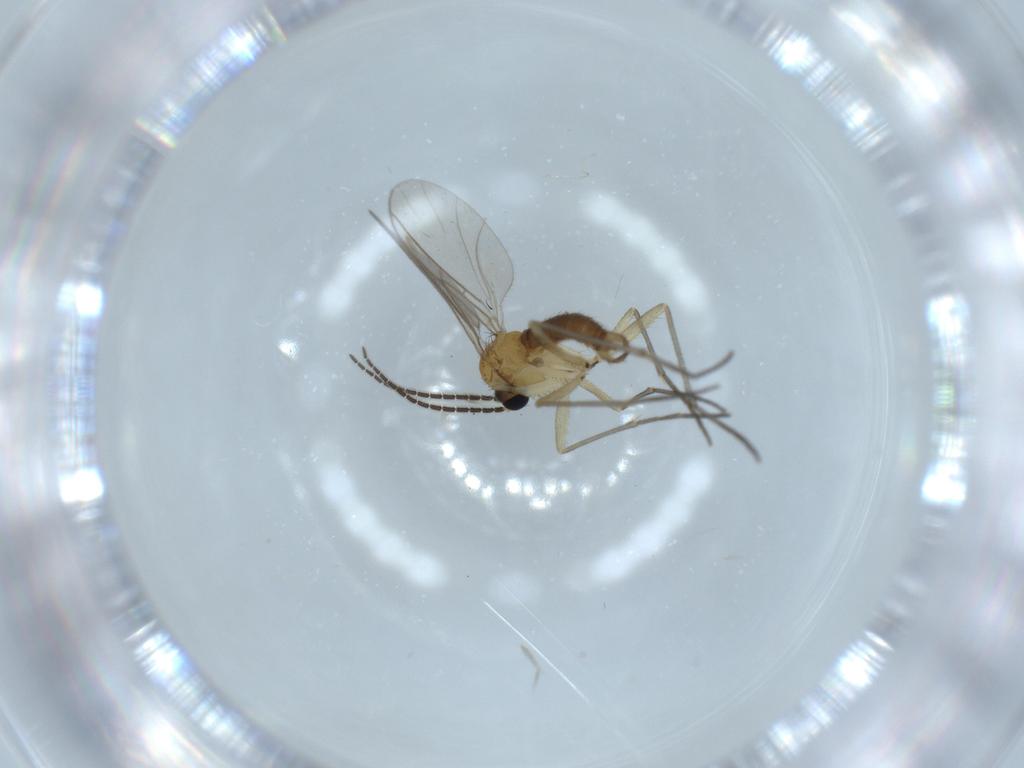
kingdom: Animalia
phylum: Arthropoda
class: Insecta
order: Diptera
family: Sciaridae
